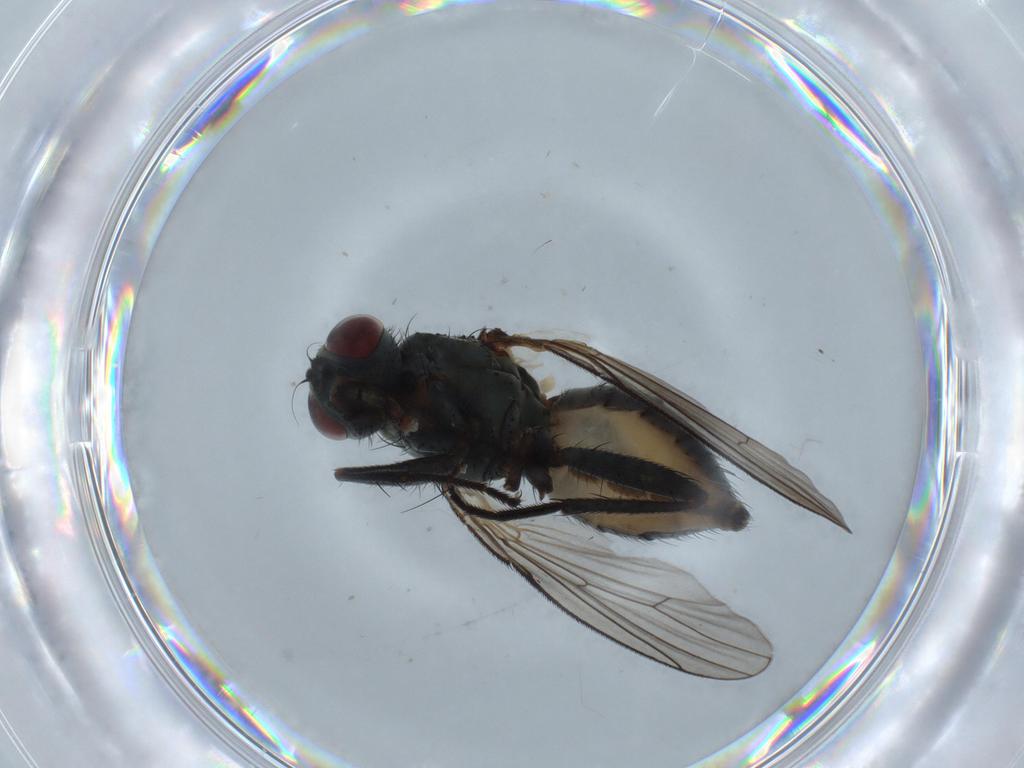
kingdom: Animalia
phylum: Arthropoda
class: Insecta
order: Diptera
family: Muscidae
